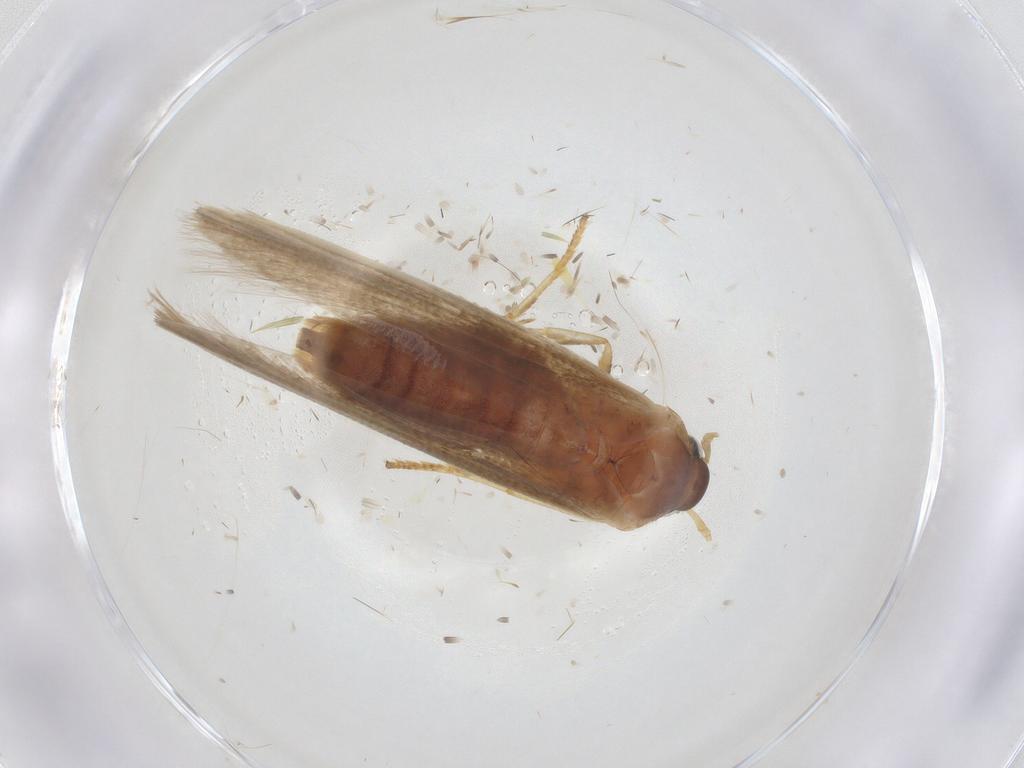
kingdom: Animalia
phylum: Arthropoda
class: Insecta
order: Lepidoptera
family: Blastobasidae
